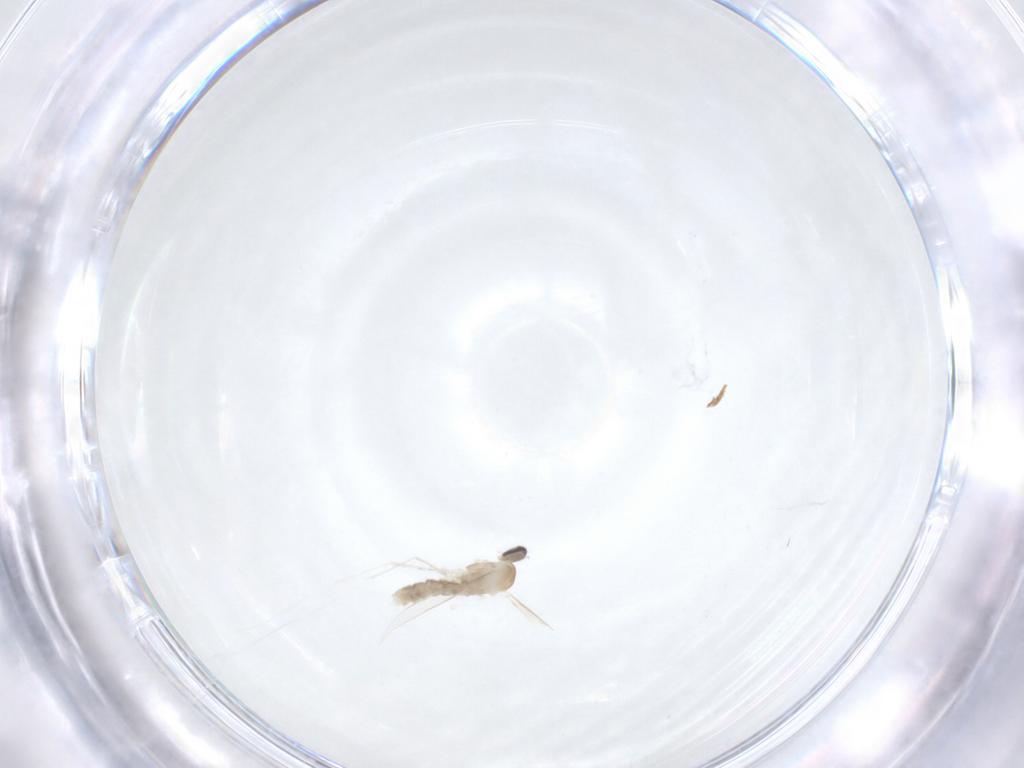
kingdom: Animalia
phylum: Arthropoda
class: Insecta
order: Diptera
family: Cecidomyiidae
